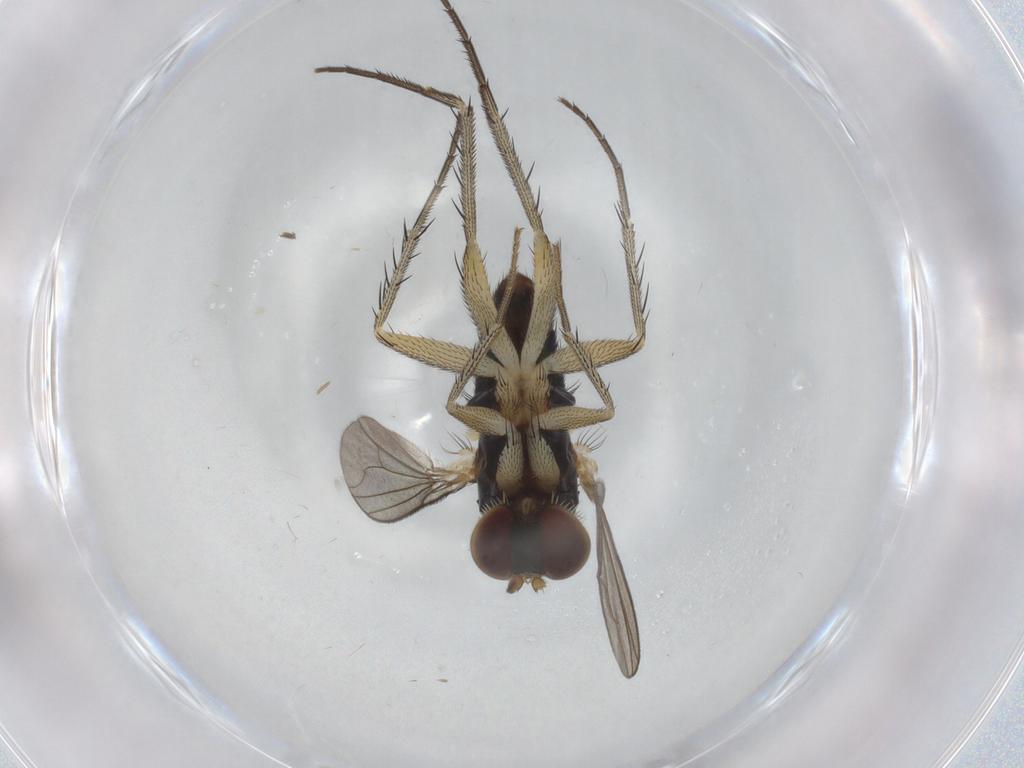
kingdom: Animalia
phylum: Arthropoda
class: Insecta
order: Diptera
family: Dolichopodidae
